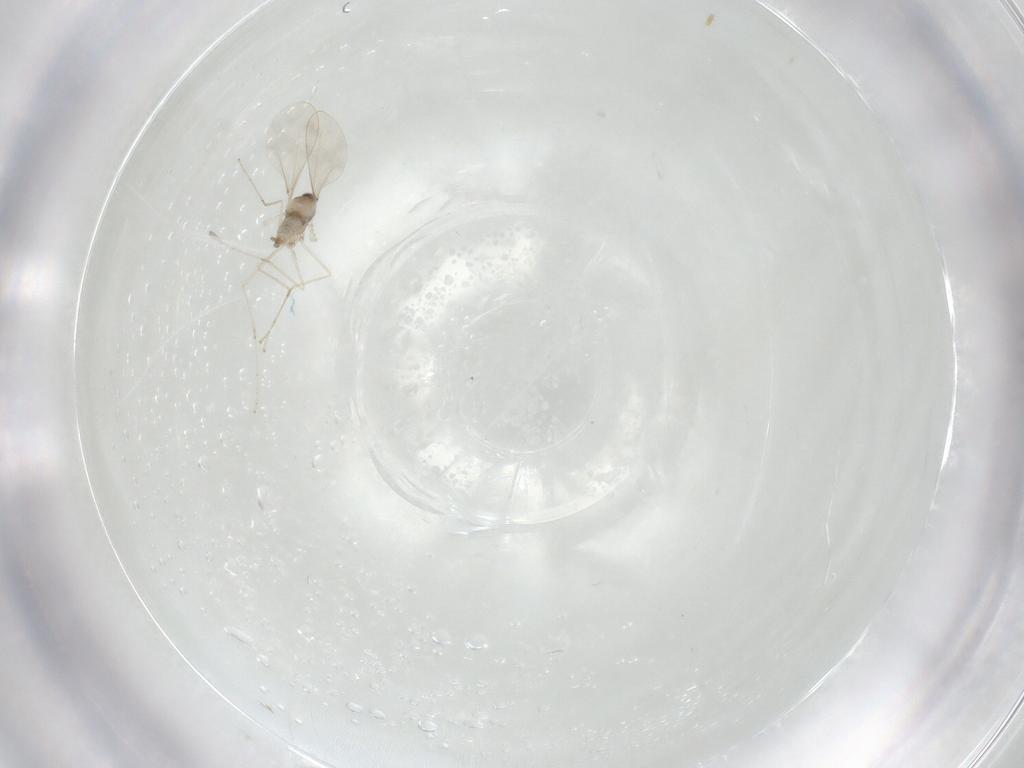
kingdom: Animalia
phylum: Arthropoda
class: Insecta
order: Diptera
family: Cecidomyiidae
